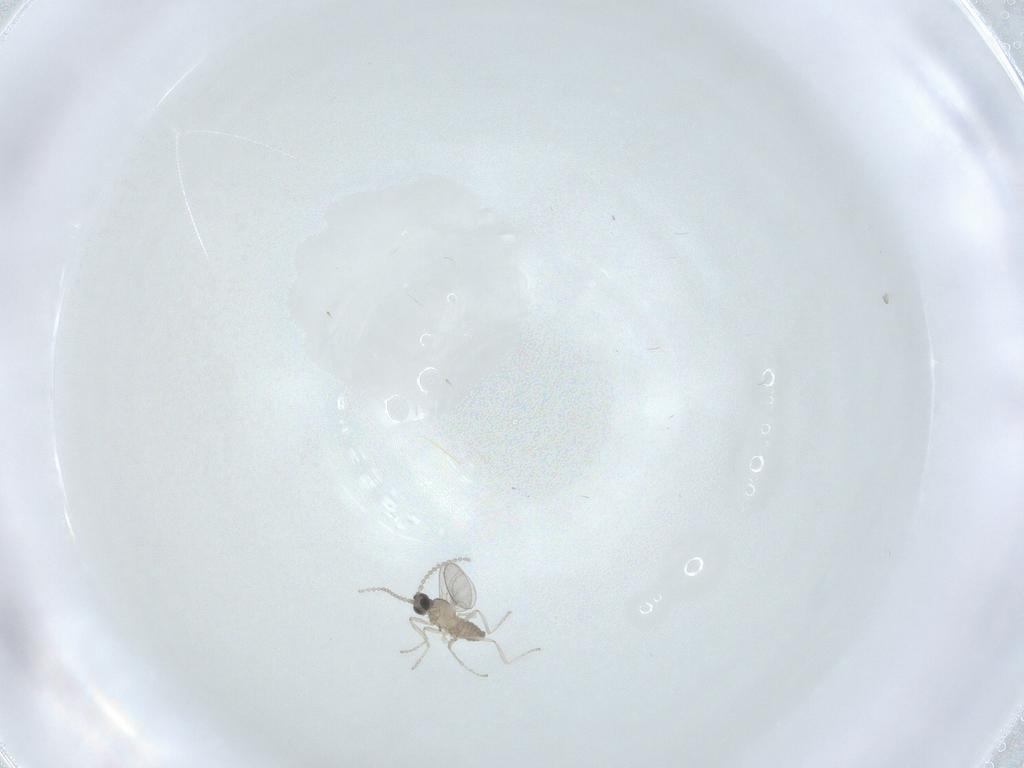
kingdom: Animalia
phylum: Arthropoda
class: Insecta
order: Diptera
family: Cecidomyiidae
